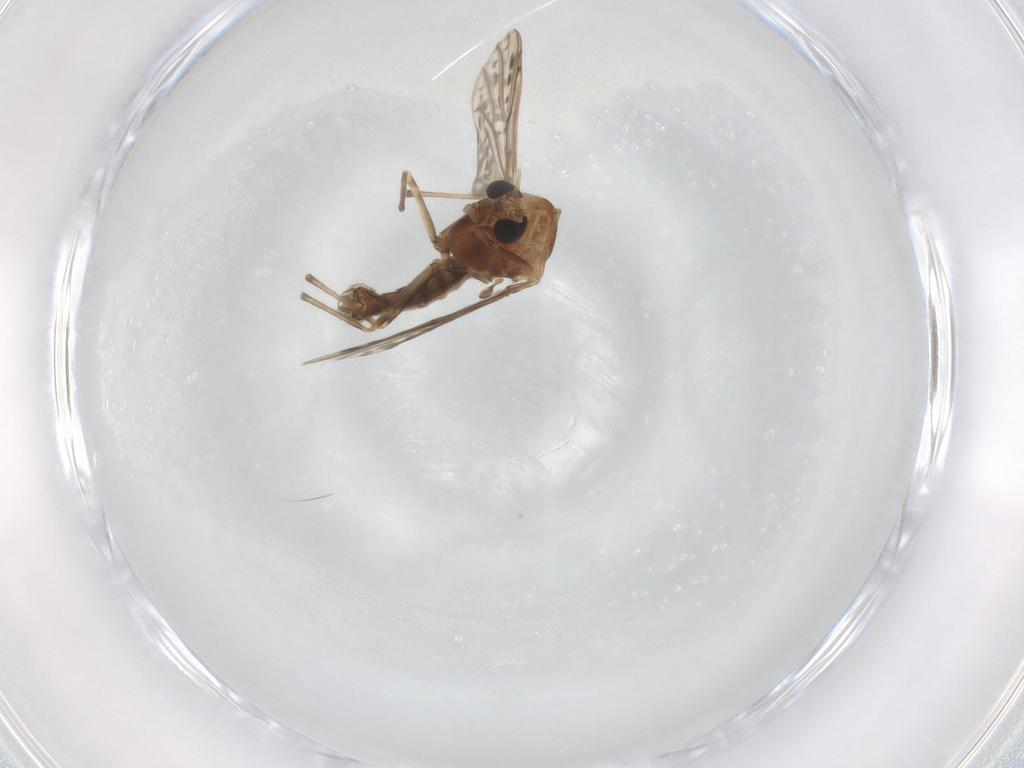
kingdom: Animalia
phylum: Arthropoda
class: Insecta
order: Diptera
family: Chironomidae
